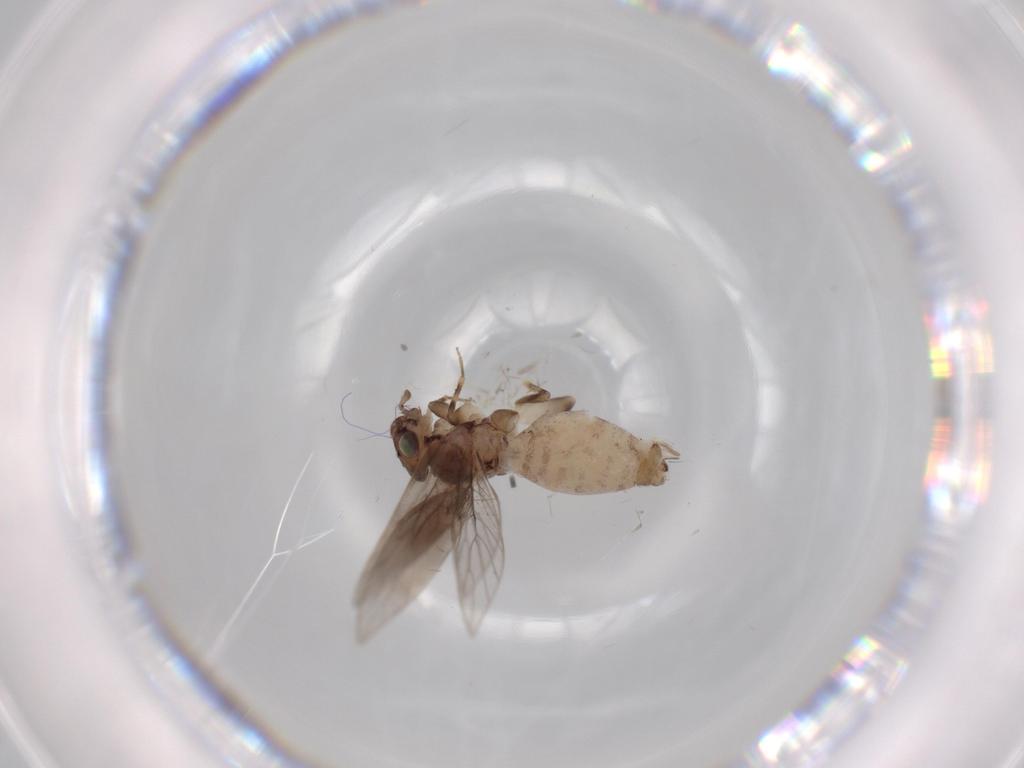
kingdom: Animalia
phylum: Arthropoda
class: Insecta
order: Psocodea
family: Lepidopsocidae
